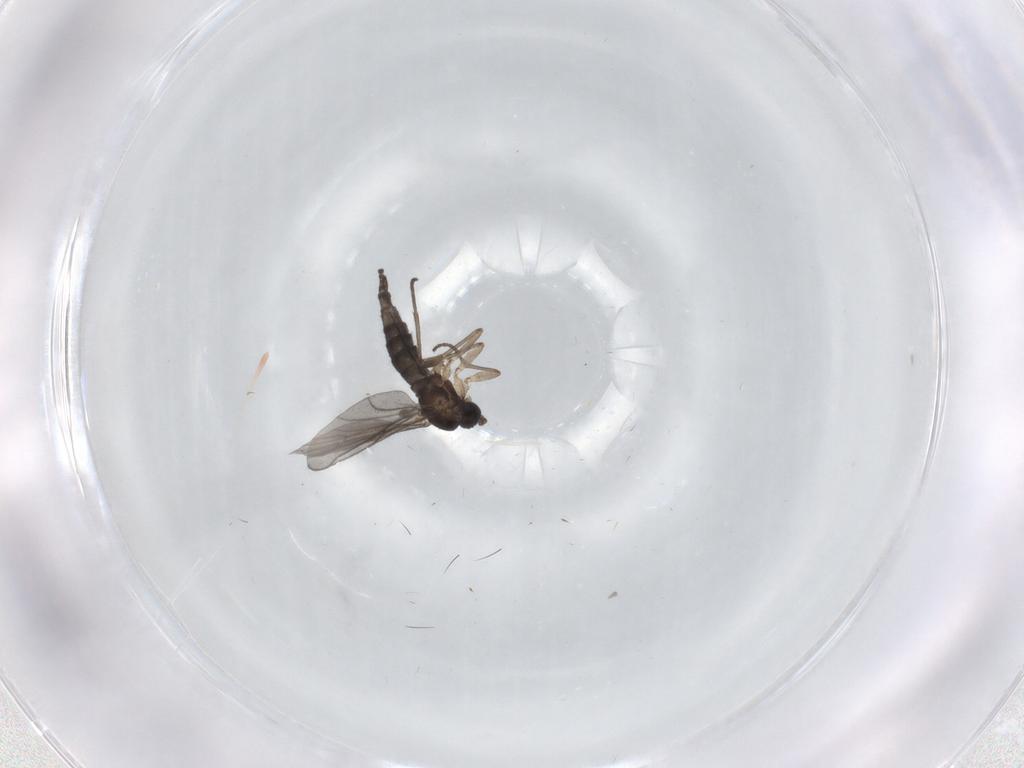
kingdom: Animalia
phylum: Arthropoda
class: Insecta
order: Diptera
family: Sciaridae
